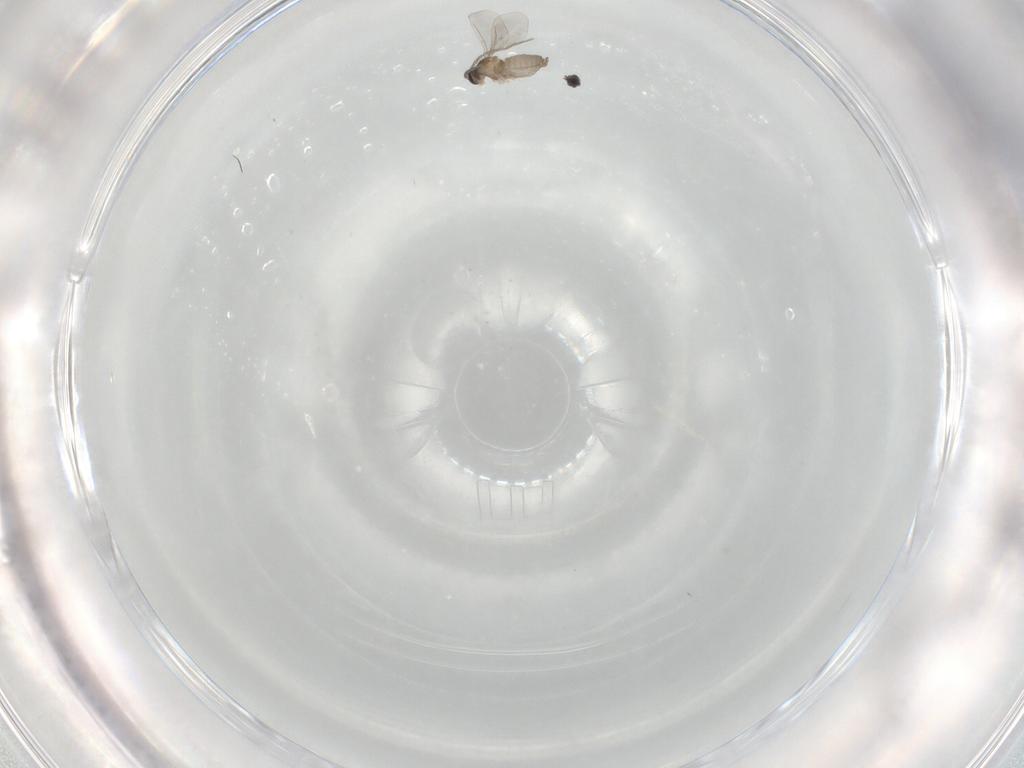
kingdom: Animalia
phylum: Arthropoda
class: Insecta
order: Diptera
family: Cecidomyiidae
